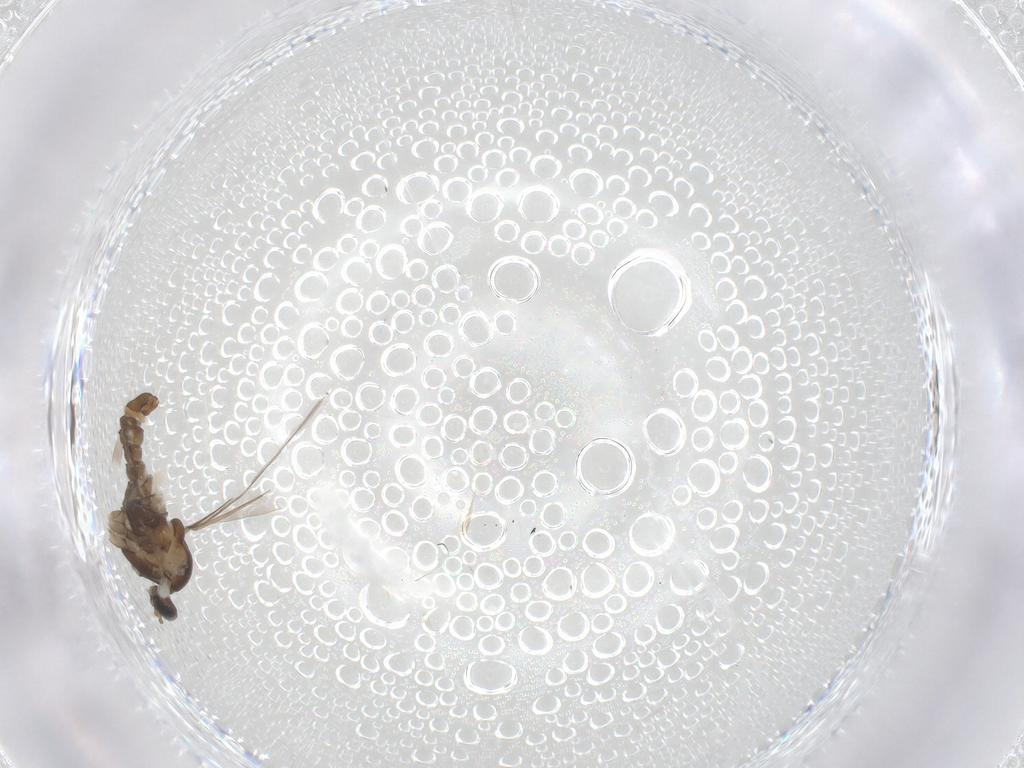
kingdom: Animalia
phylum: Arthropoda
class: Insecta
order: Diptera
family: Cecidomyiidae
